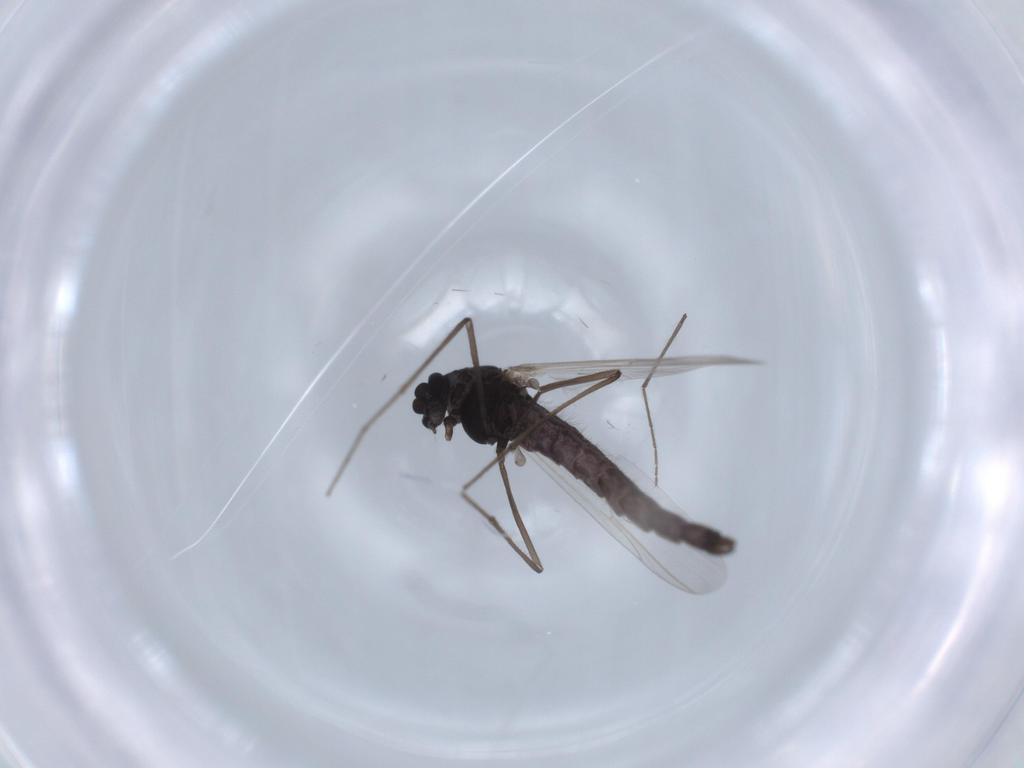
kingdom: Animalia
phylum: Arthropoda
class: Insecta
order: Diptera
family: Chironomidae
